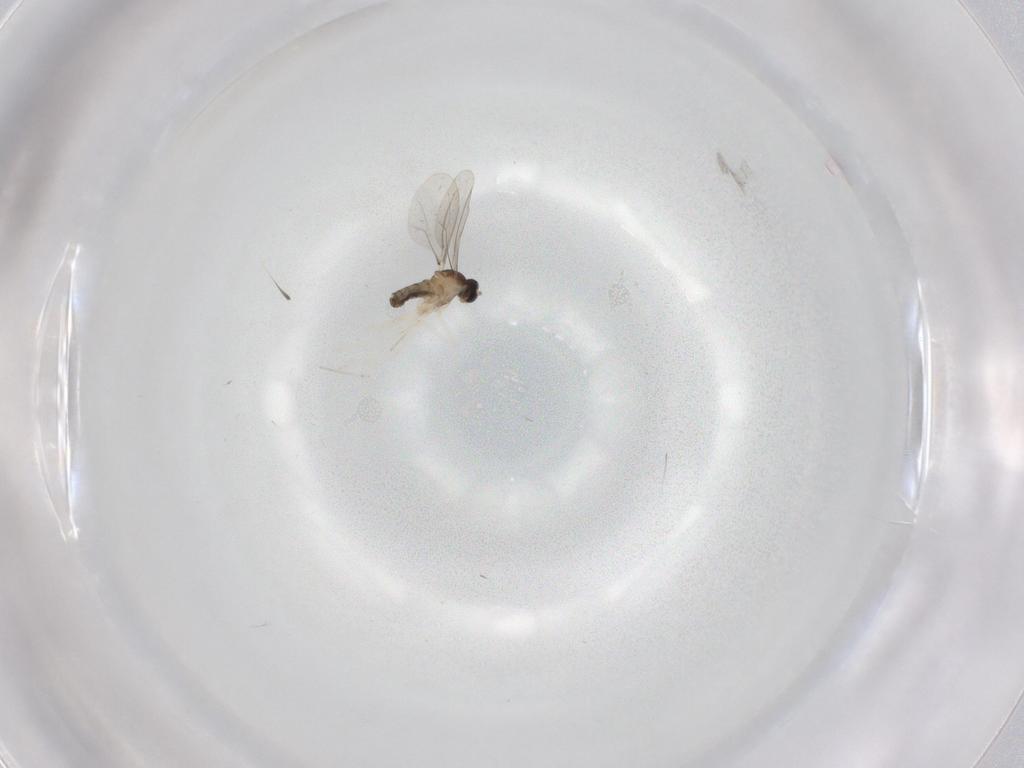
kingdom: Animalia
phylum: Arthropoda
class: Insecta
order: Diptera
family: Cecidomyiidae
